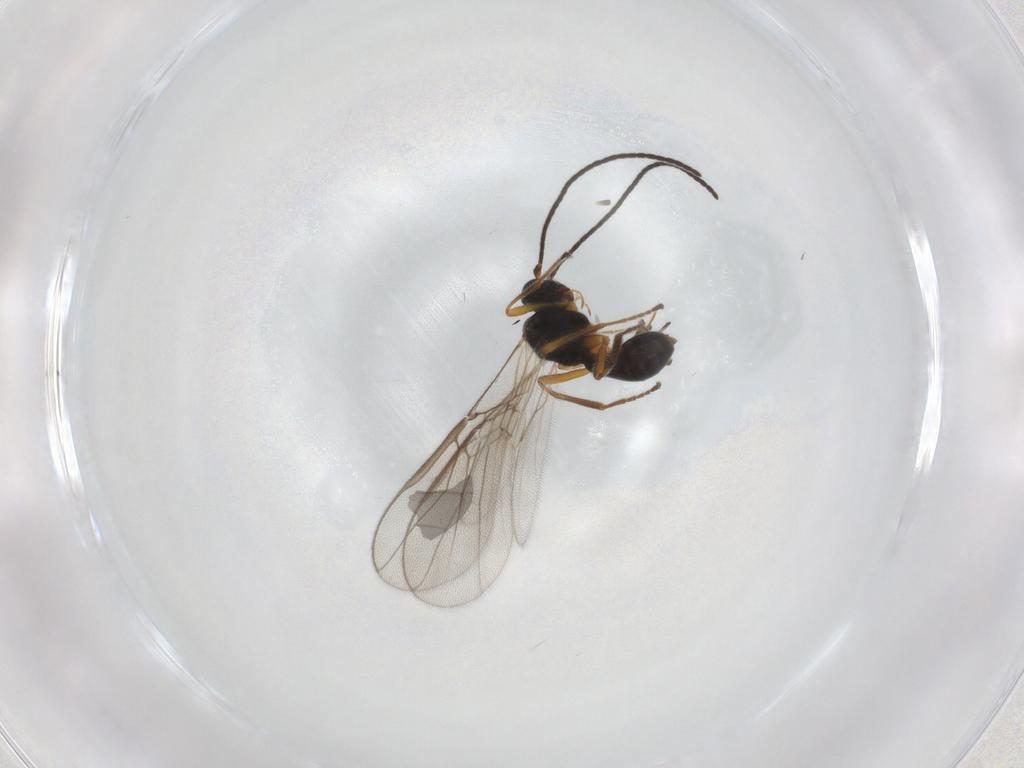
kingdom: Animalia
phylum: Arthropoda
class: Insecta
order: Hymenoptera
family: Braconidae
